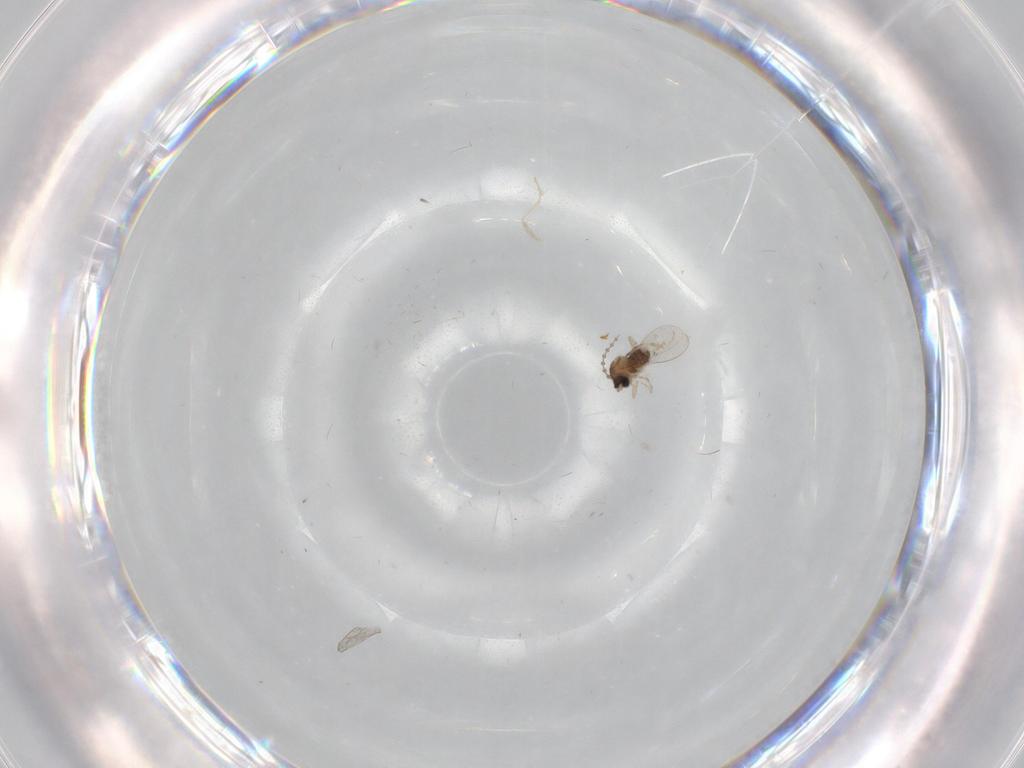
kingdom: Animalia
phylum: Arthropoda
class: Insecta
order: Diptera
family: Cecidomyiidae
